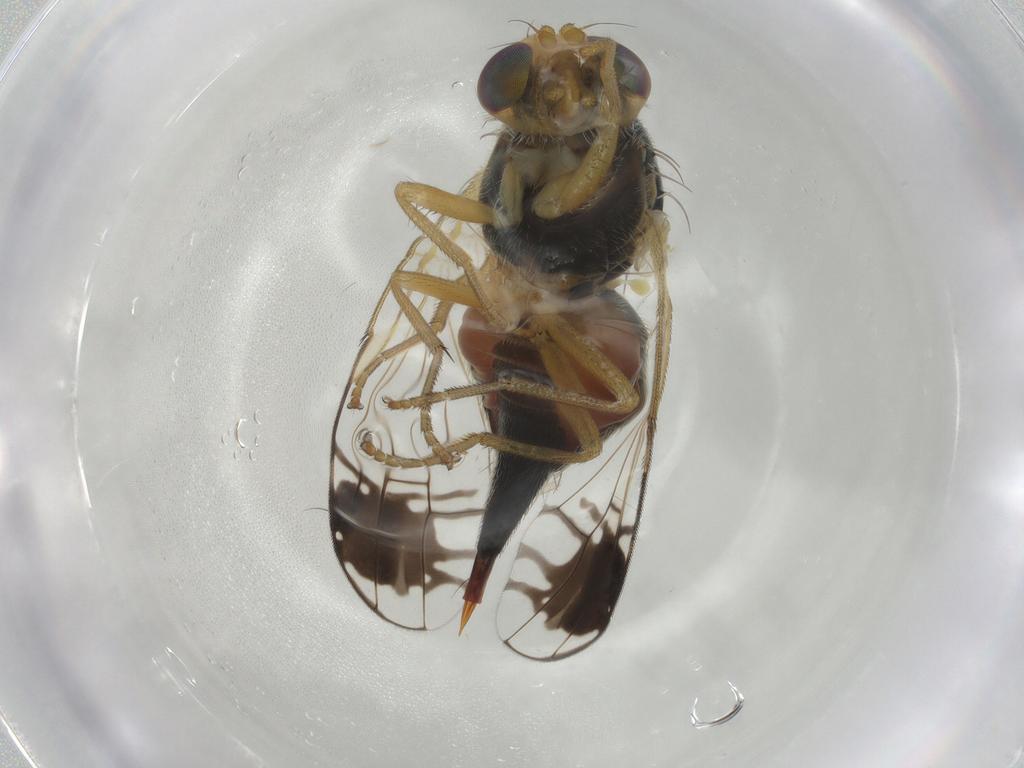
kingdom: Animalia
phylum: Arthropoda
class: Insecta
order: Diptera
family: Tephritidae
